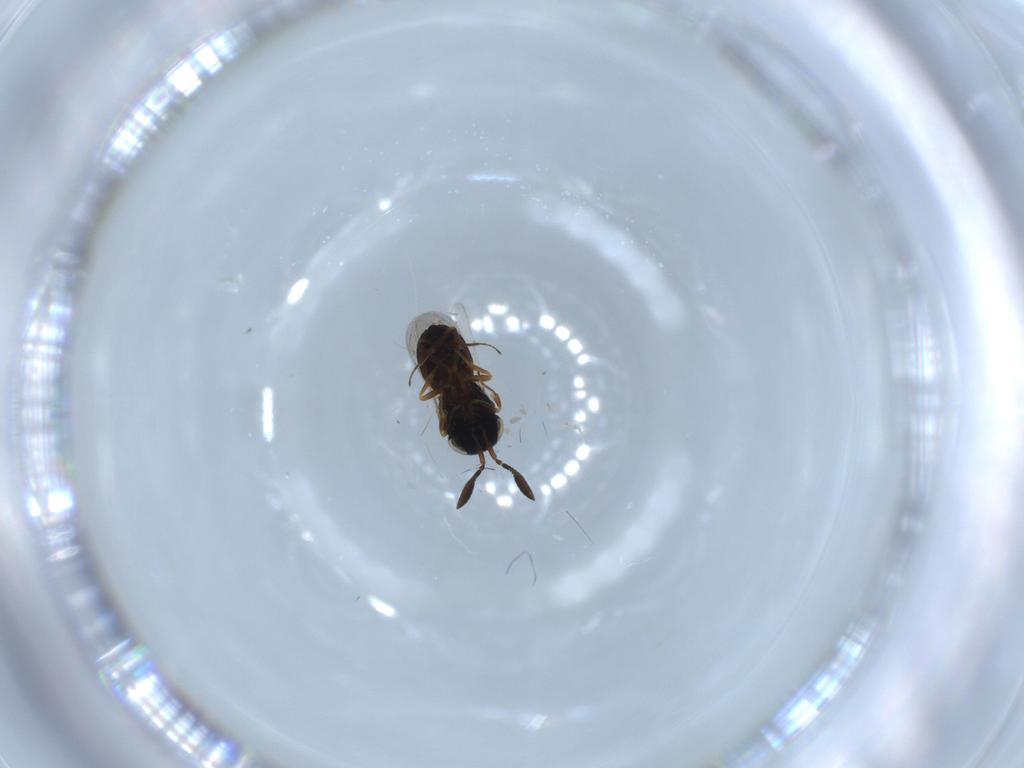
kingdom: Animalia
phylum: Arthropoda
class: Insecta
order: Hymenoptera
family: Scelionidae
